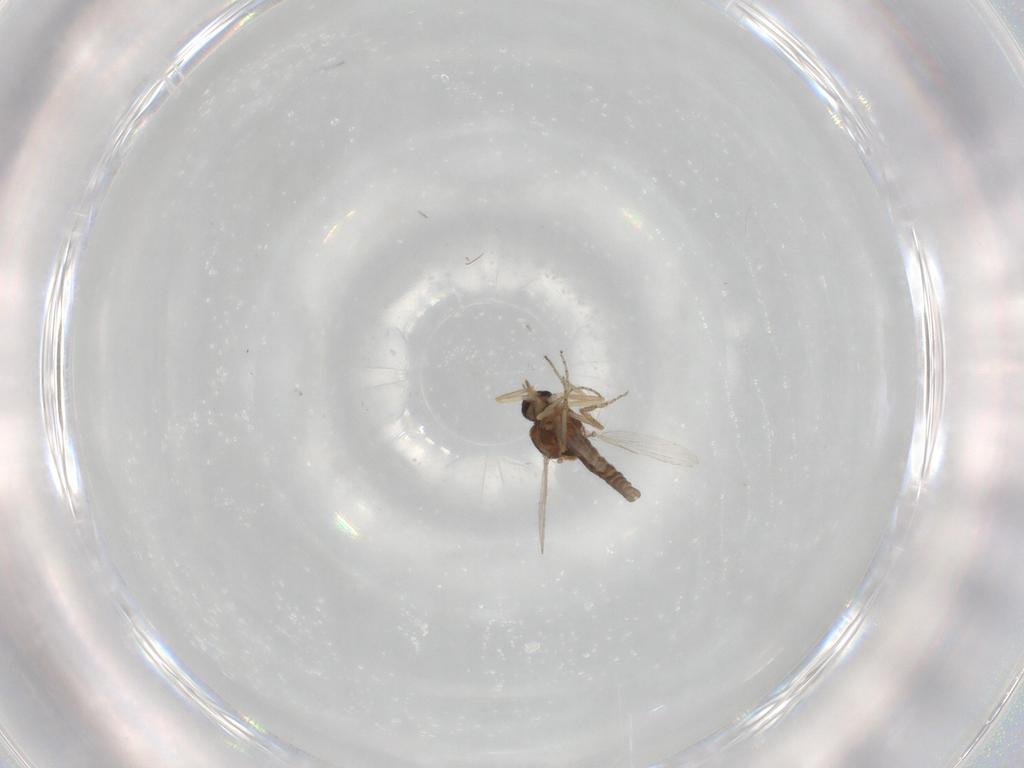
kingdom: Animalia
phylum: Arthropoda
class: Insecta
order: Diptera
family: Ceratopogonidae
